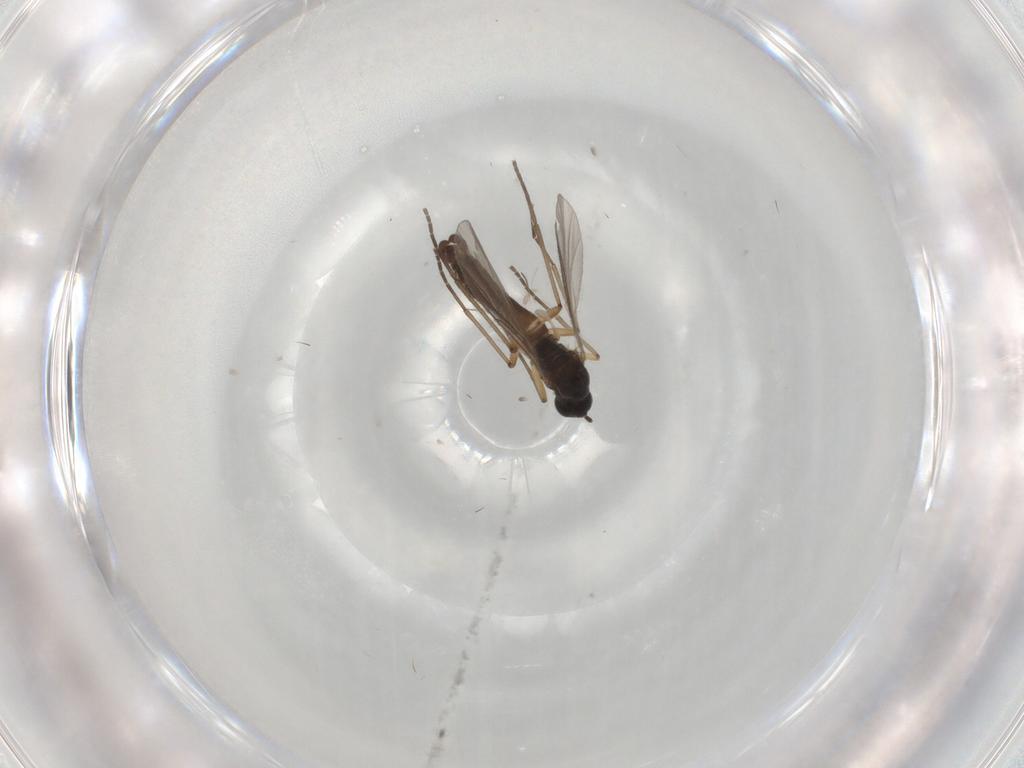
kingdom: Animalia
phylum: Arthropoda
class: Insecta
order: Diptera
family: Sciaridae
